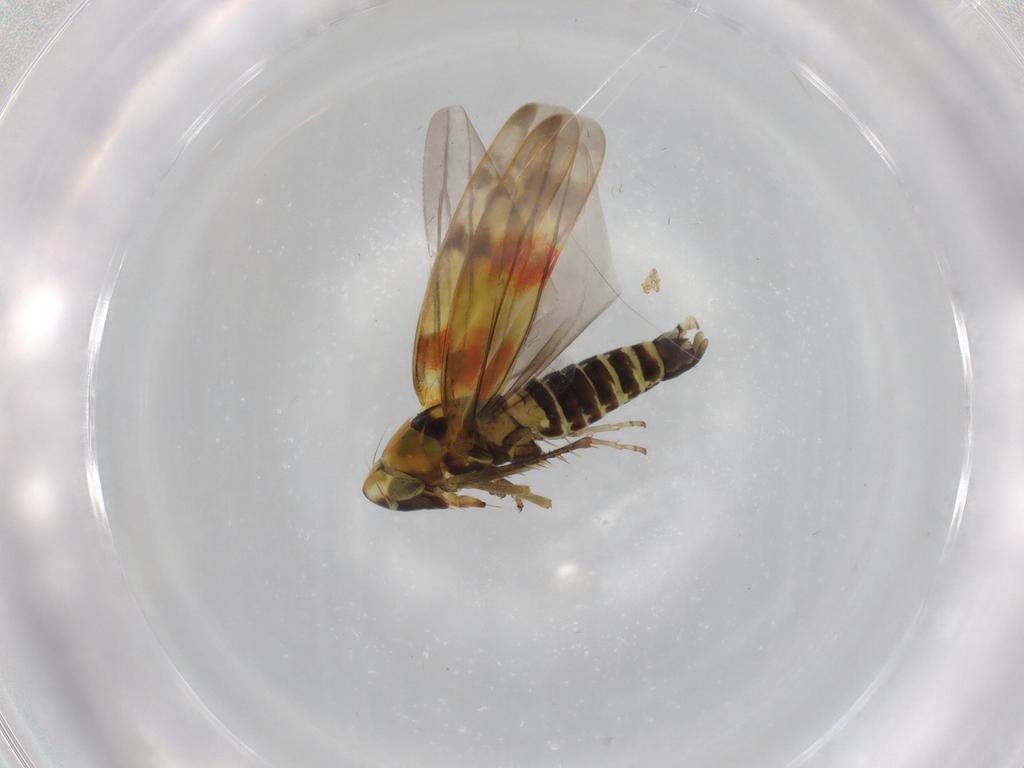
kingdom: Animalia
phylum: Arthropoda
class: Insecta
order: Hemiptera
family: Cicadellidae
